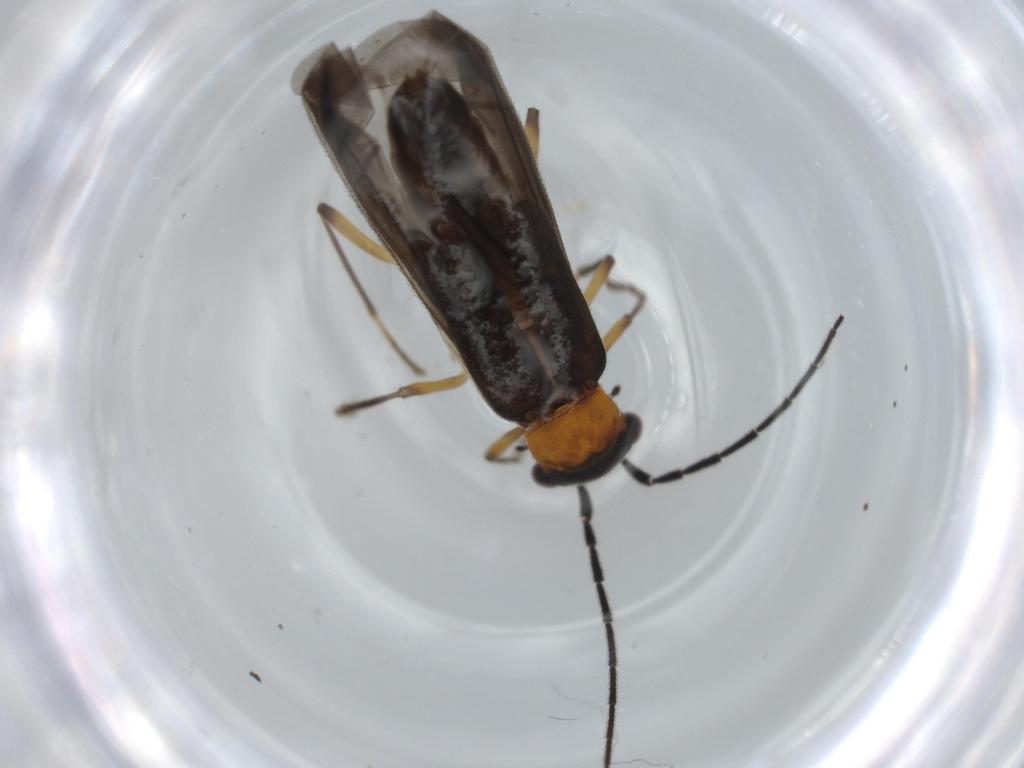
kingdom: Animalia
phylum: Arthropoda
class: Insecta
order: Coleoptera
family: Cantharidae
